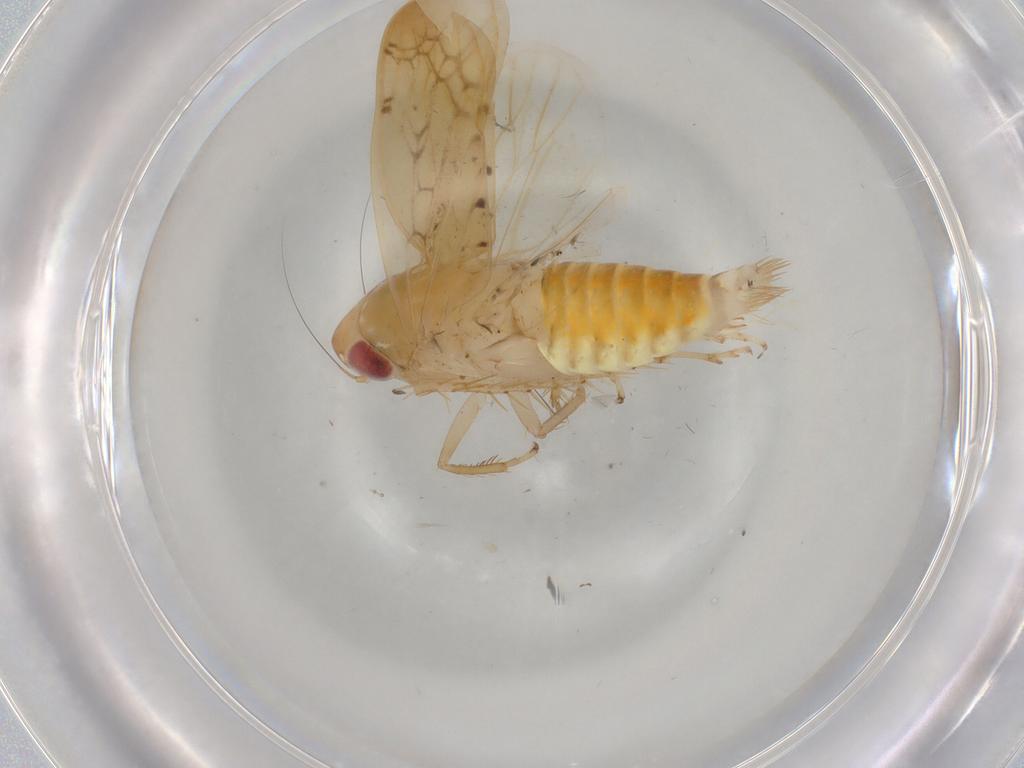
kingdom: Animalia
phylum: Arthropoda
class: Insecta
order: Hemiptera
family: Cicadellidae
